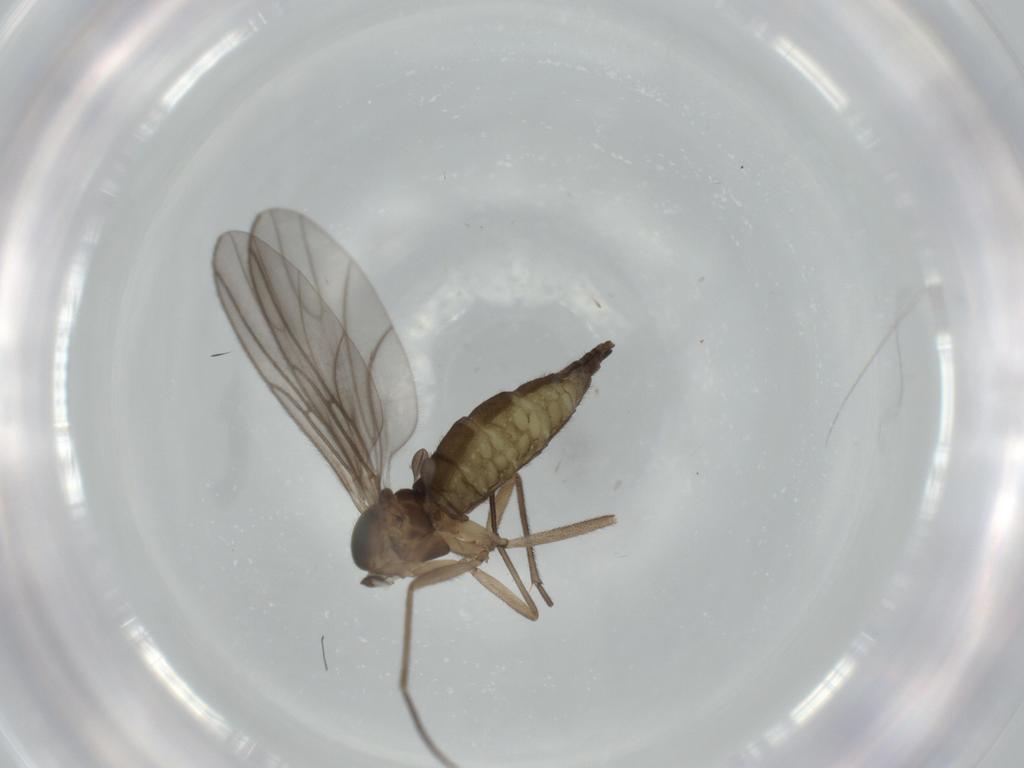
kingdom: Animalia
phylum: Arthropoda
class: Insecta
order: Diptera
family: Sciaridae
